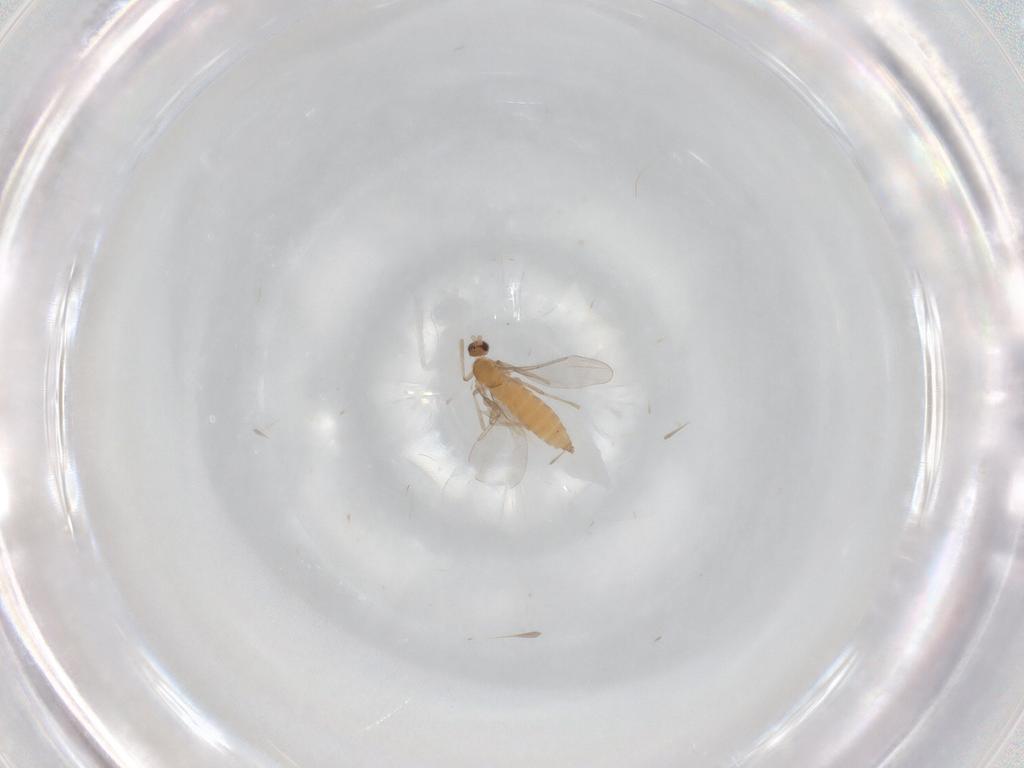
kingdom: Animalia
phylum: Arthropoda
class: Insecta
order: Diptera
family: Cecidomyiidae
